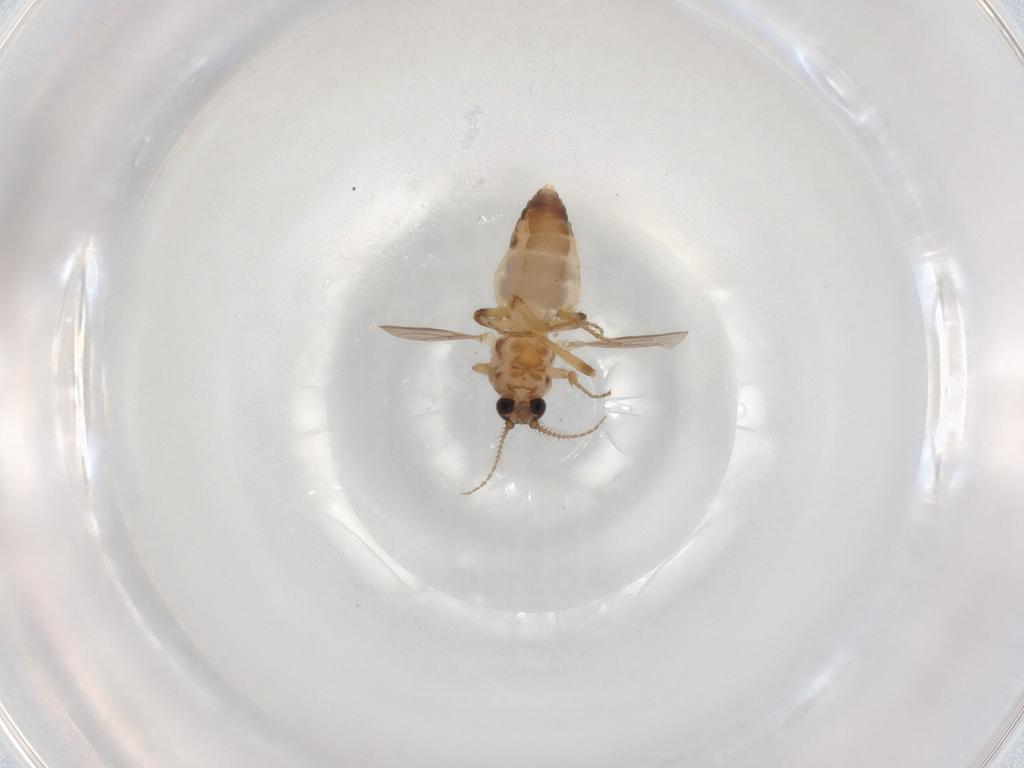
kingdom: Animalia
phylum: Arthropoda
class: Insecta
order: Diptera
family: Ceratopogonidae
